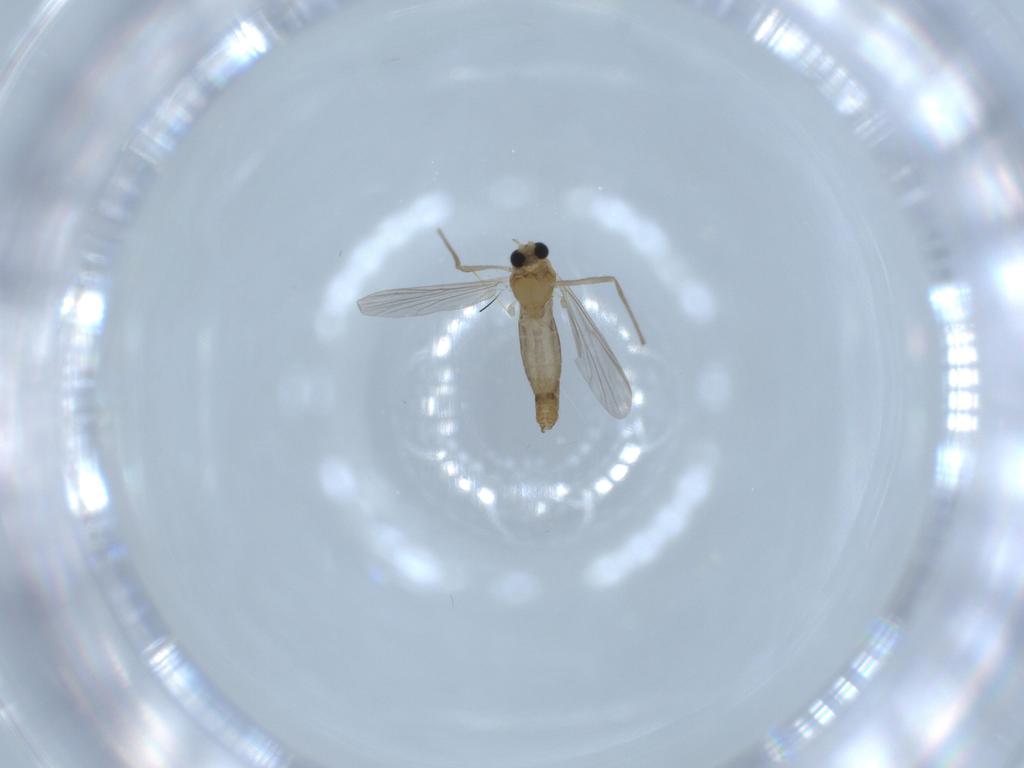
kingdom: Animalia
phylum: Arthropoda
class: Insecta
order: Diptera
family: Chironomidae
